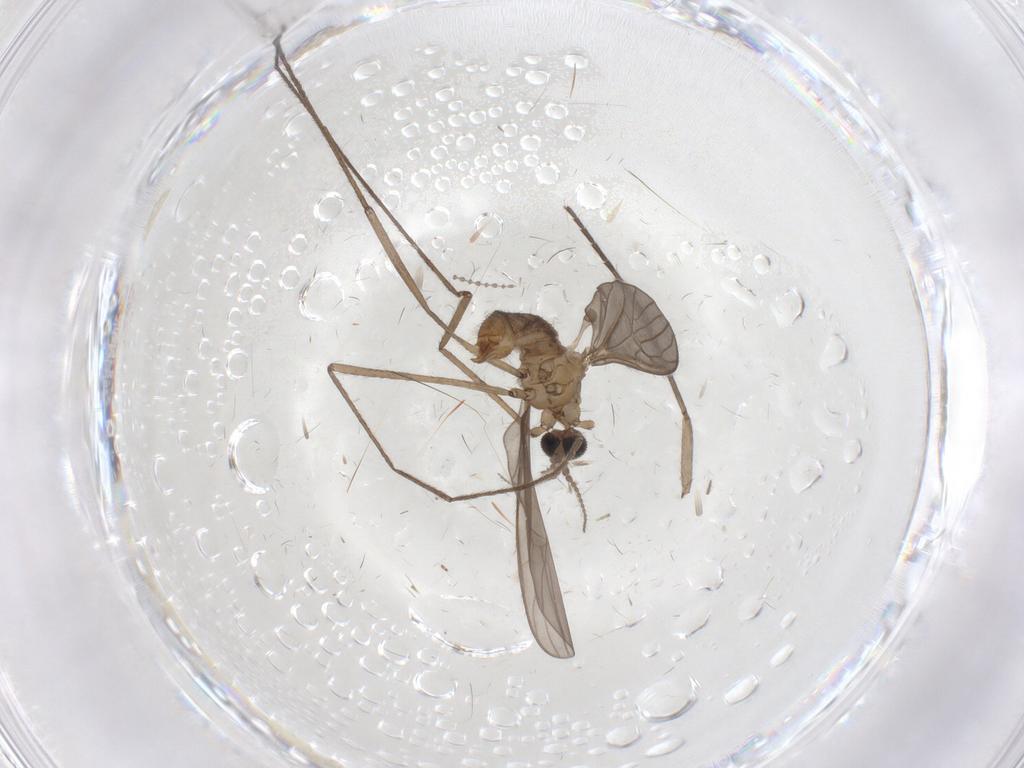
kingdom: Animalia
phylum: Arthropoda
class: Insecta
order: Diptera
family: Limoniidae
